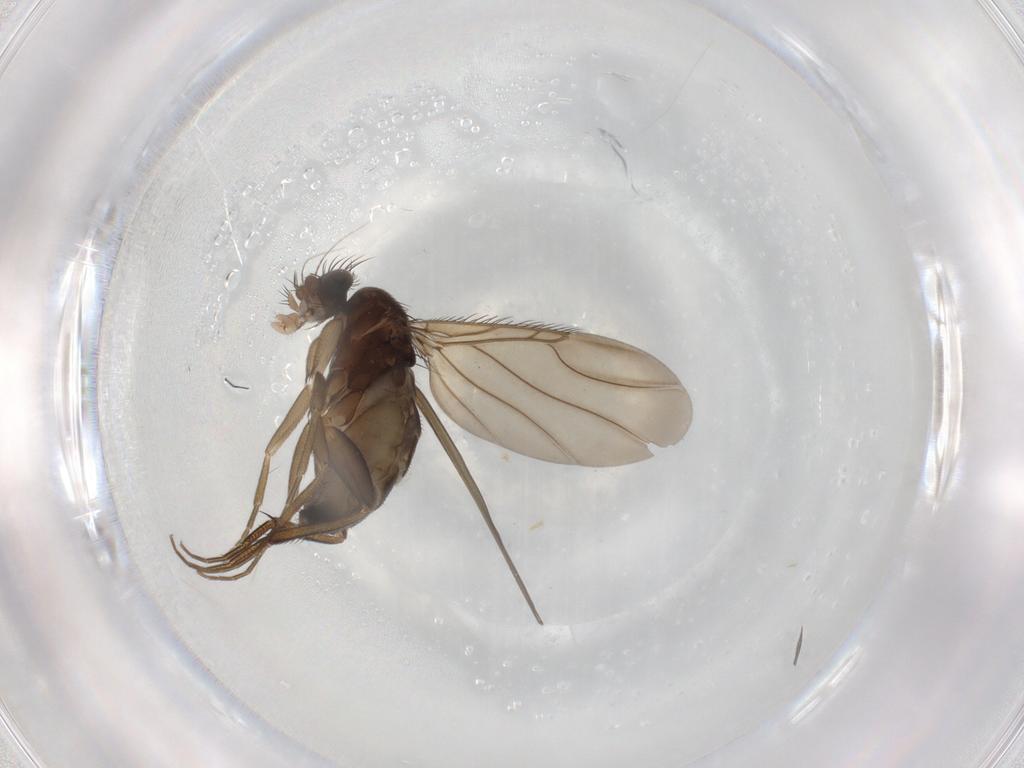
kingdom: Animalia
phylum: Arthropoda
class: Insecta
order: Diptera
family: Phoridae
